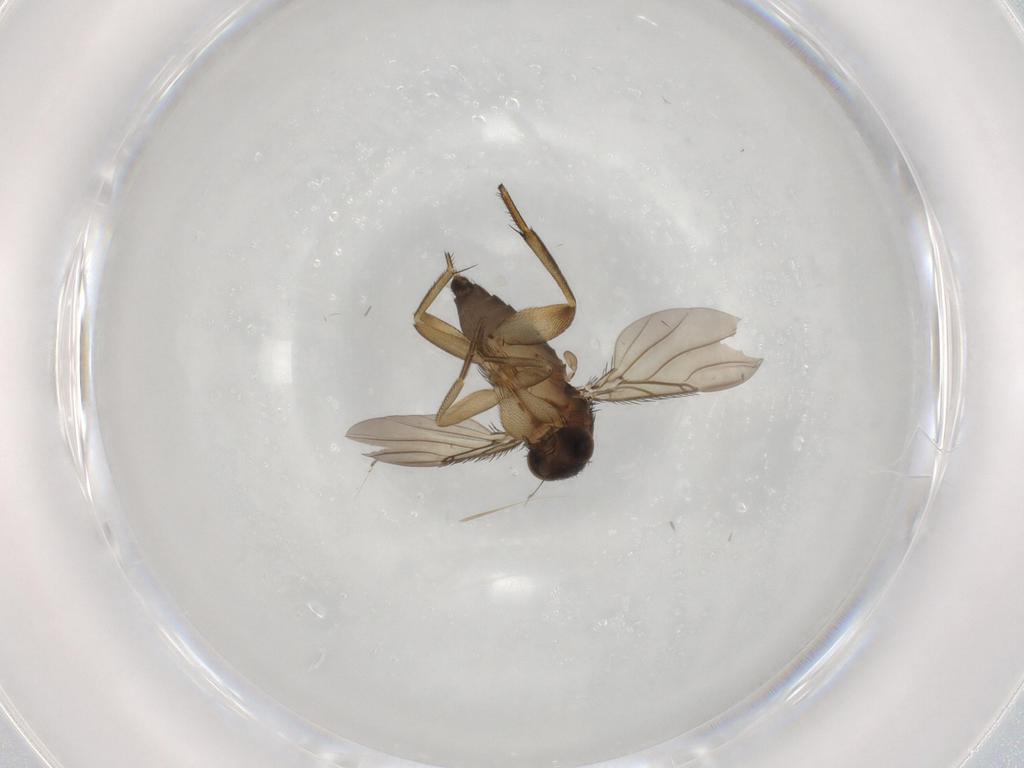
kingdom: Animalia
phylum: Arthropoda
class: Insecta
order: Diptera
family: Phoridae
